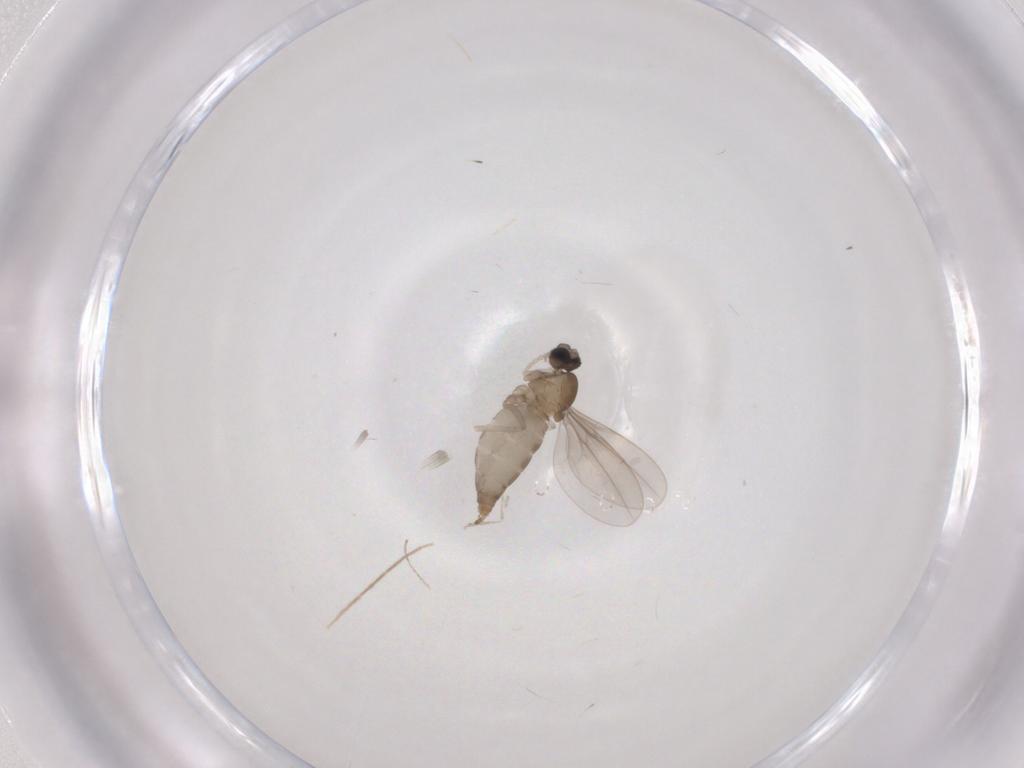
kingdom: Animalia
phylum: Arthropoda
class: Insecta
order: Diptera
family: Cecidomyiidae
